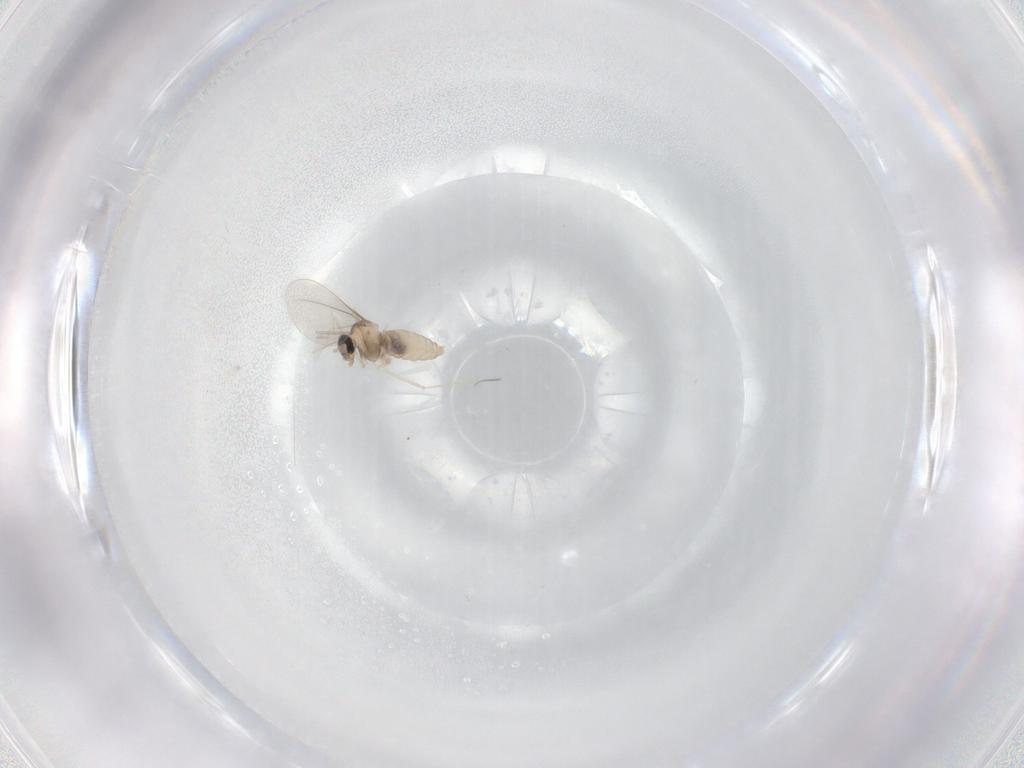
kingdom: Animalia
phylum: Arthropoda
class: Insecta
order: Diptera
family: Cecidomyiidae
